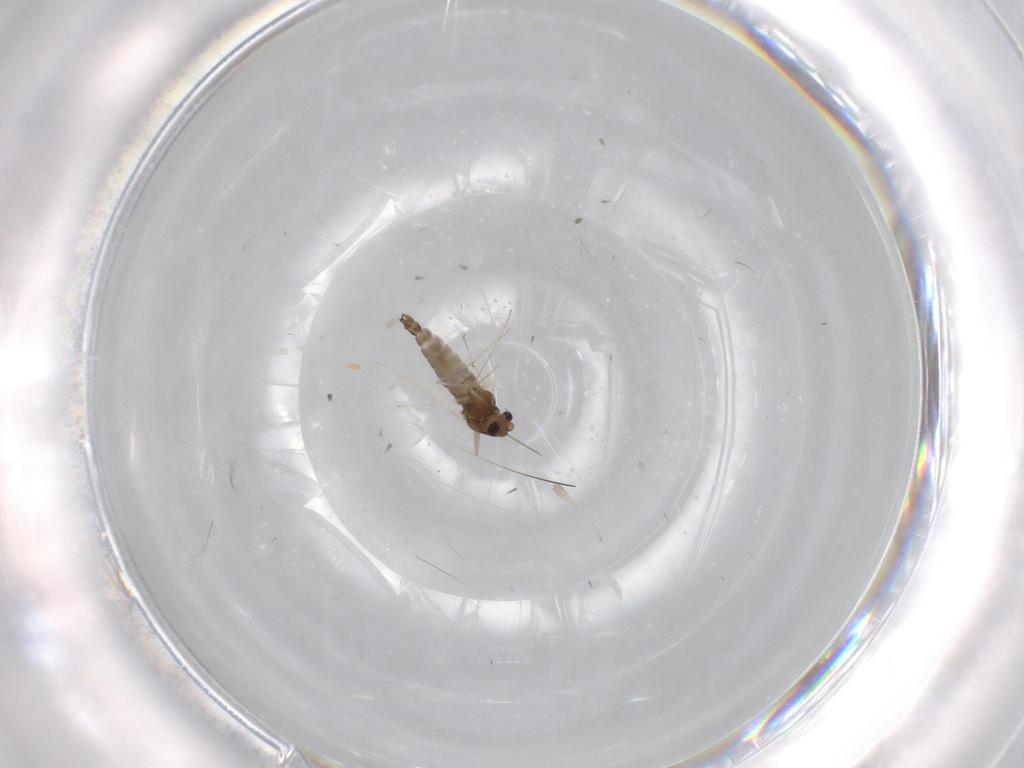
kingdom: Animalia
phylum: Arthropoda
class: Insecta
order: Diptera
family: Chironomidae
